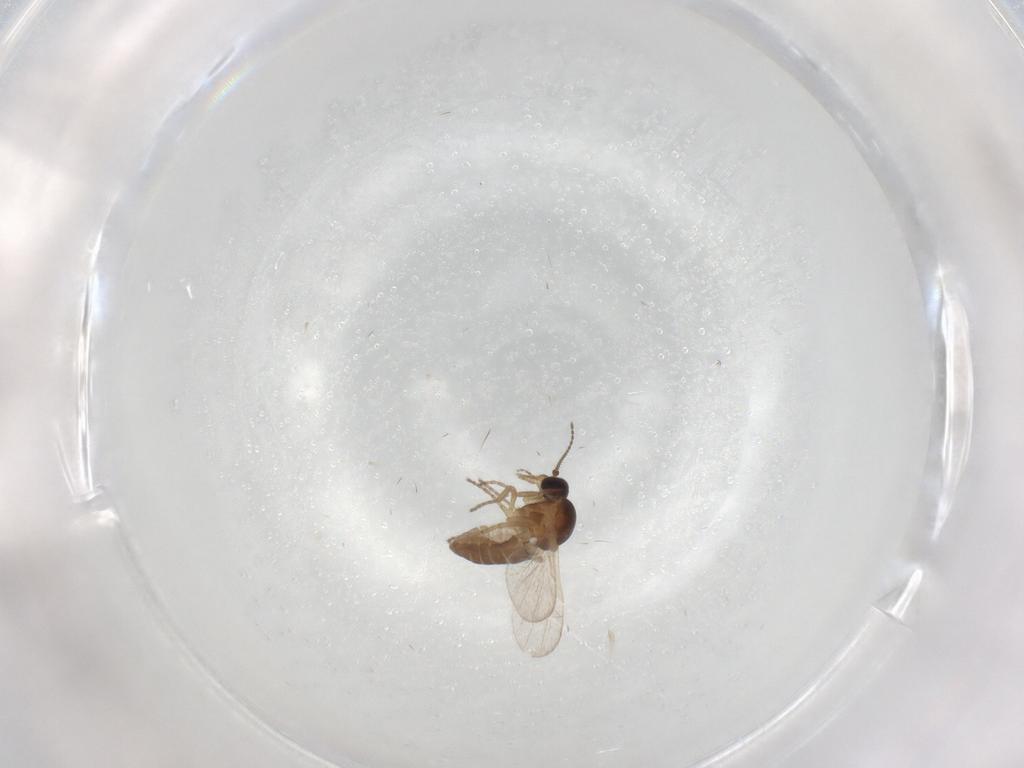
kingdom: Animalia
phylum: Arthropoda
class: Insecta
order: Diptera
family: Ceratopogonidae
